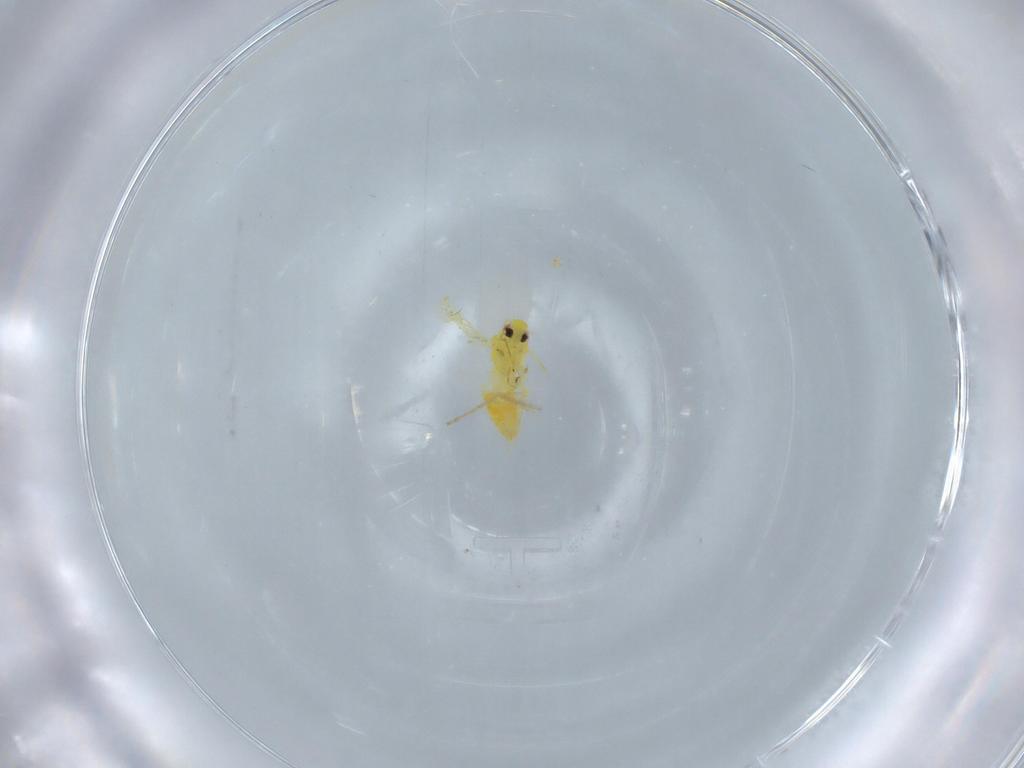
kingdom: Animalia
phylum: Arthropoda
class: Insecta
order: Hemiptera
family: Aleyrodidae
